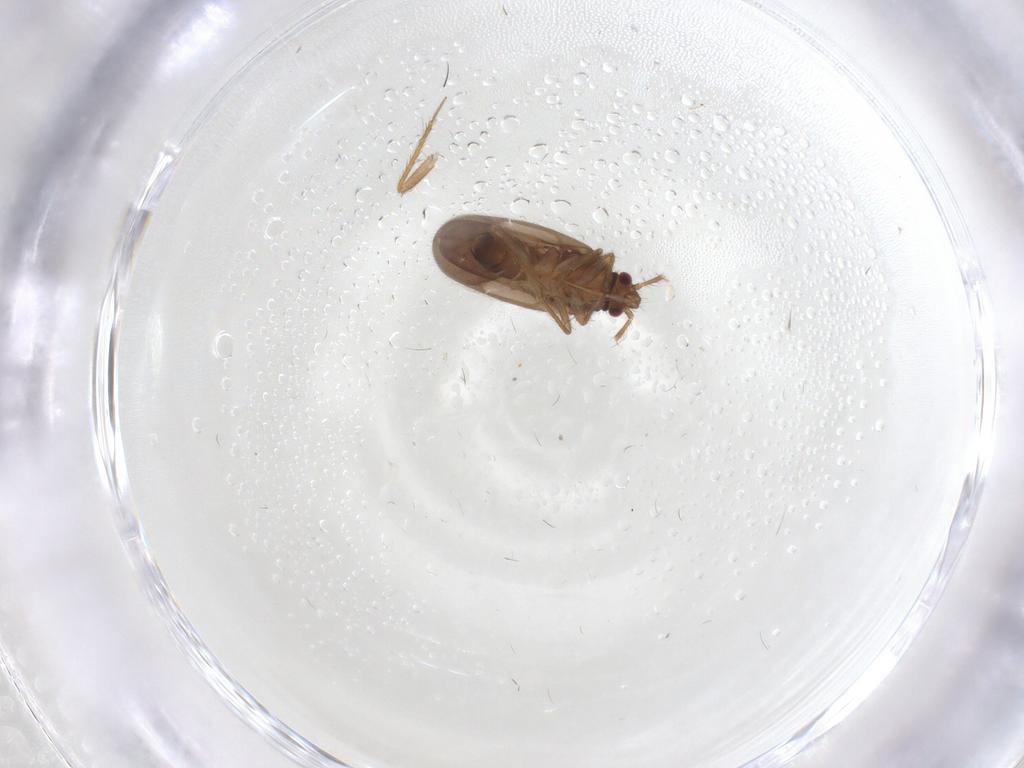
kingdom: Animalia
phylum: Arthropoda
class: Insecta
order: Hemiptera
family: Ceratocombidae
